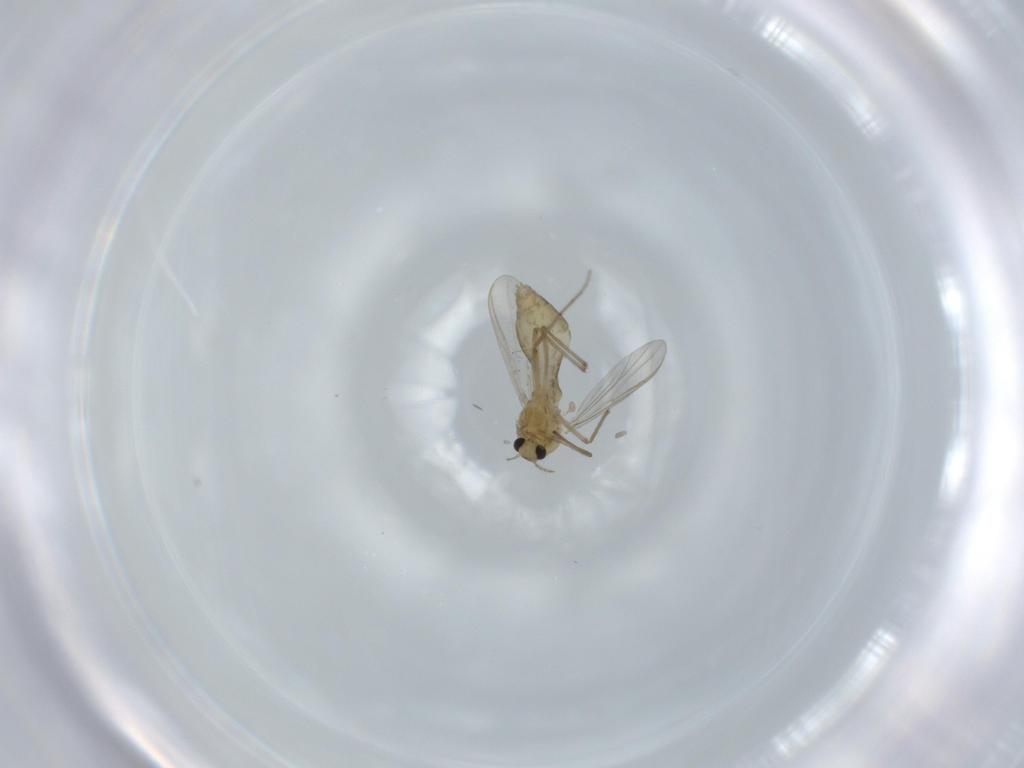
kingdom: Animalia
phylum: Arthropoda
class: Insecta
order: Diptera
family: Chironomidae
